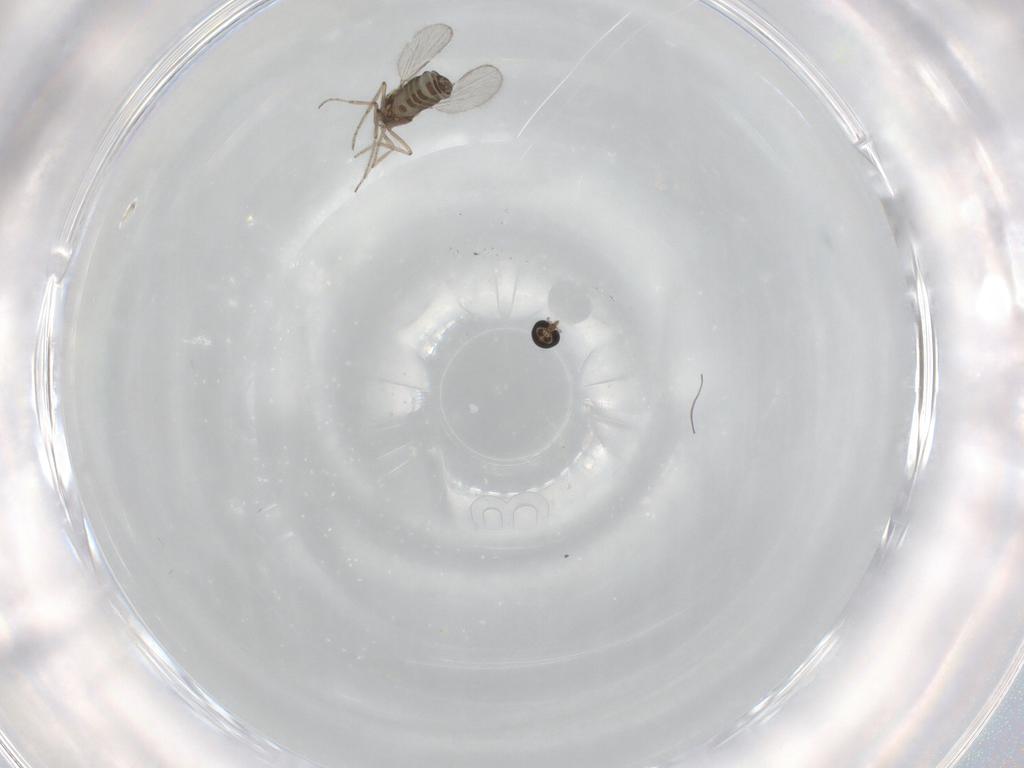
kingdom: Animalia
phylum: Arthropoda
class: Insecta
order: Diptera
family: Ceratopogonidae
